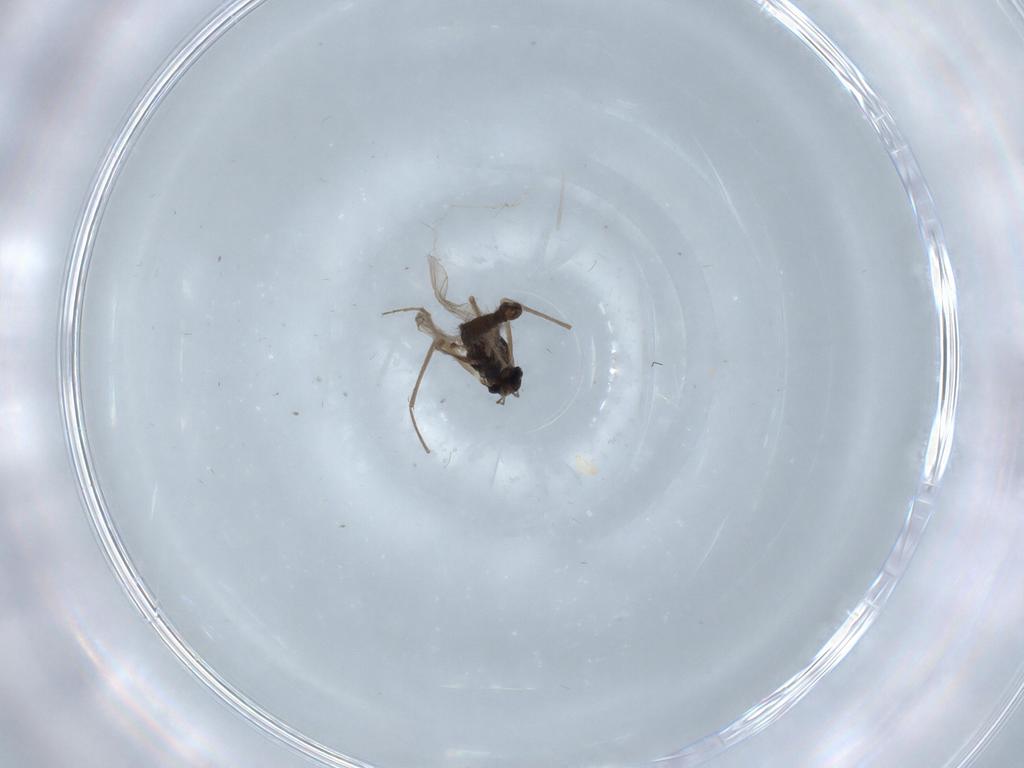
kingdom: Animalia
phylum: Arthropoda
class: Insecta
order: Diptera
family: Chironomidae
